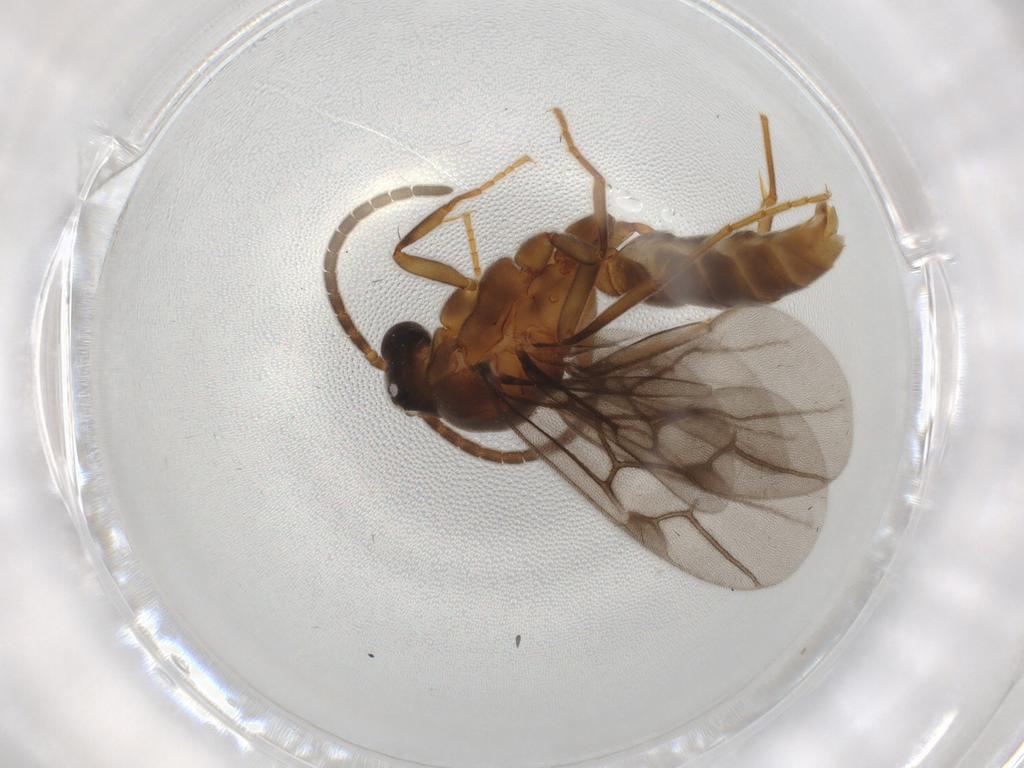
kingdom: Animalia
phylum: Arthropoda
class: Insecta
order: Hymenoptera
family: Formicidae
